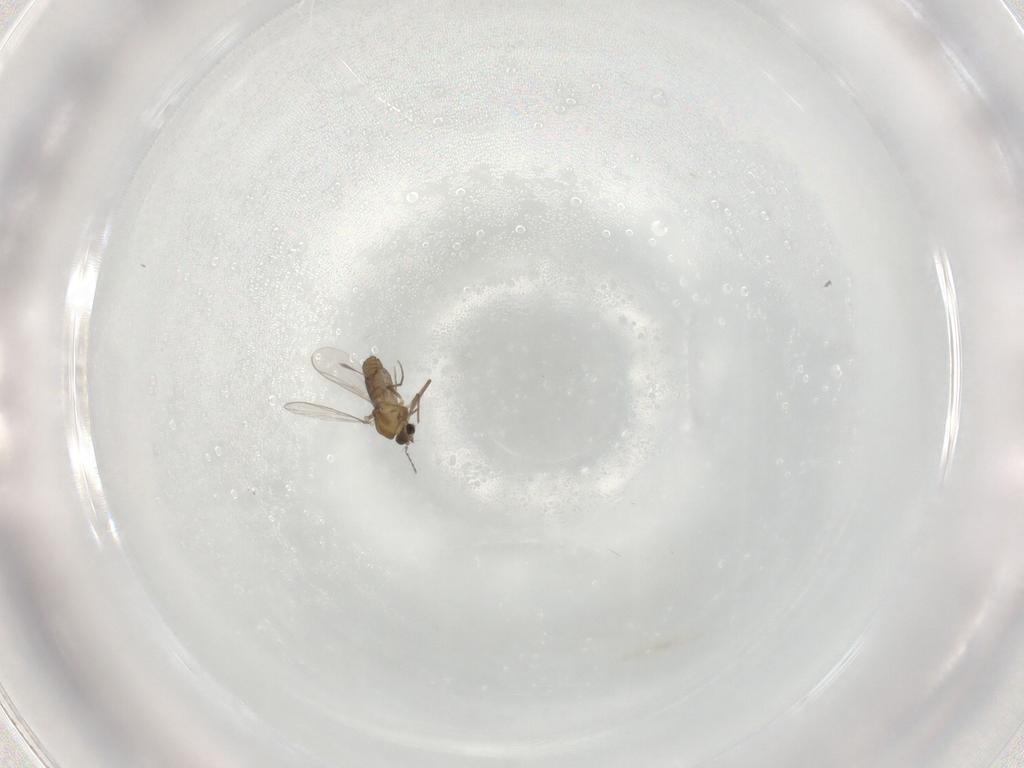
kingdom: Animalia
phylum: Arthropoda
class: Insecta
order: Diptera
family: Chironomidae
